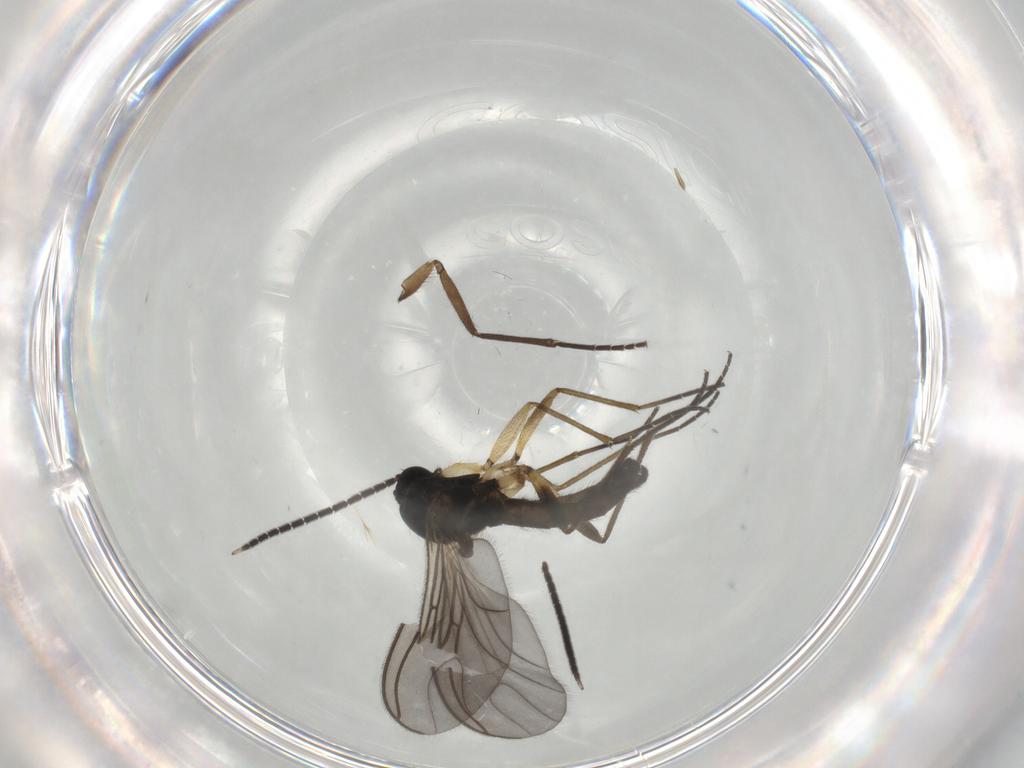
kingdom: Animalia
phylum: Arthropoda
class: Insecta
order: Diptera
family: Sciaridae
